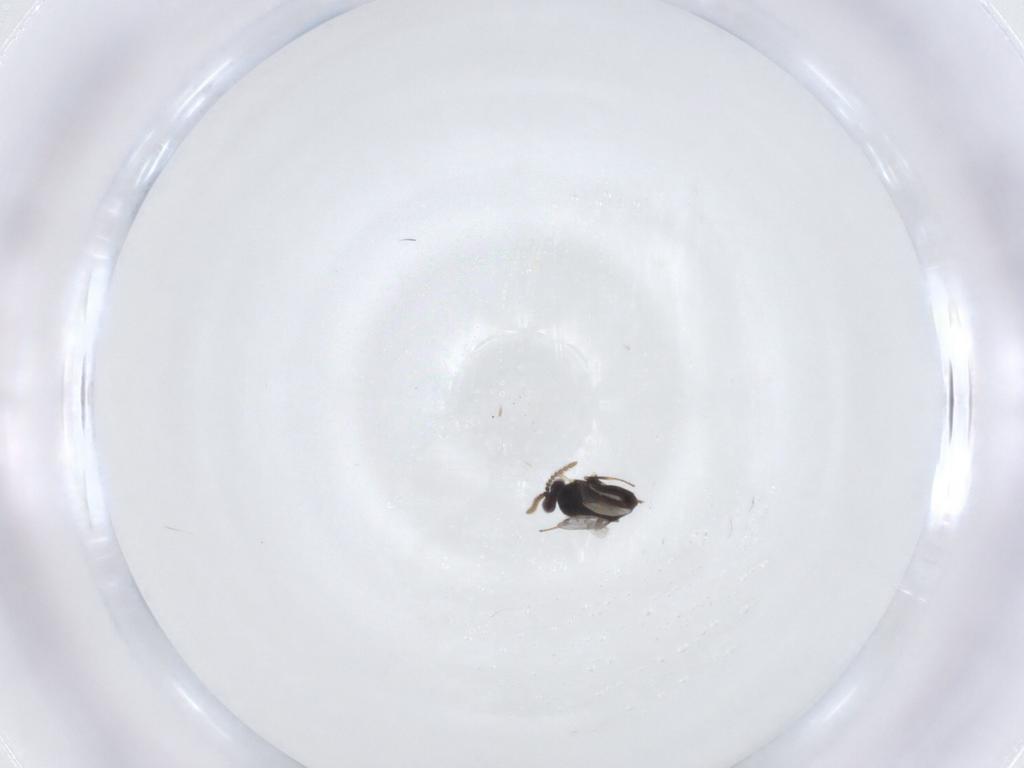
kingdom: Animalia
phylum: Arthropoda
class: Insecta
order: Hymenoptera
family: Encyrtidae
